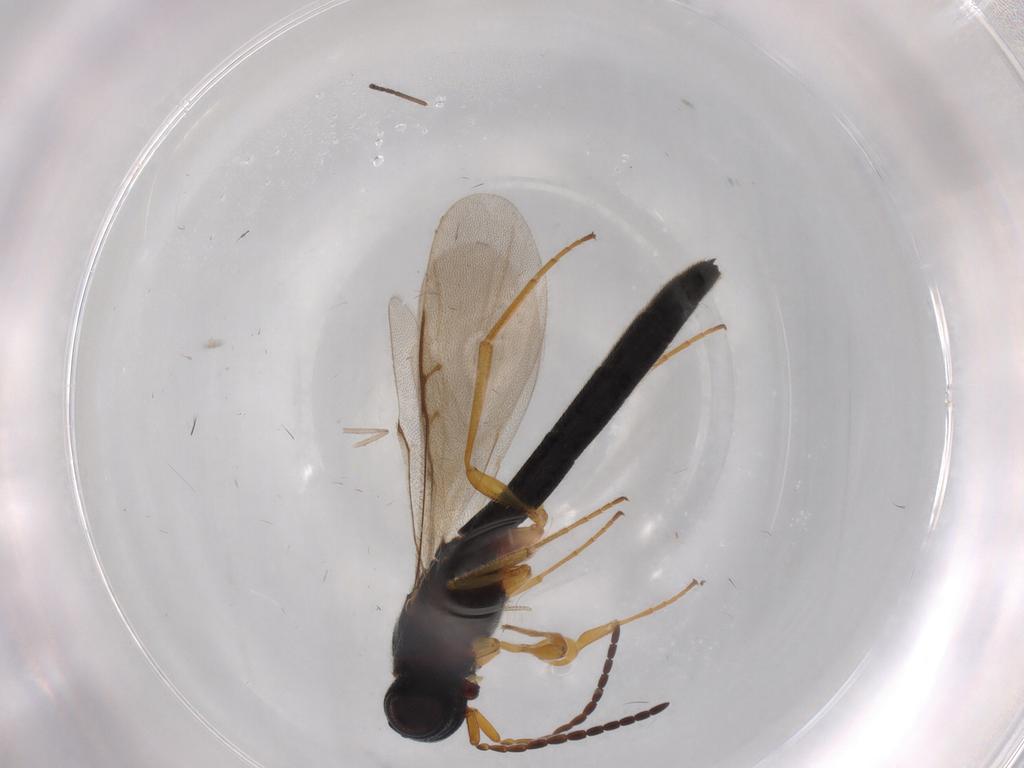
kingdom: Animalia
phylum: Arthropoda
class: Insecta
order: Hymenoptera
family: Scelionidae
